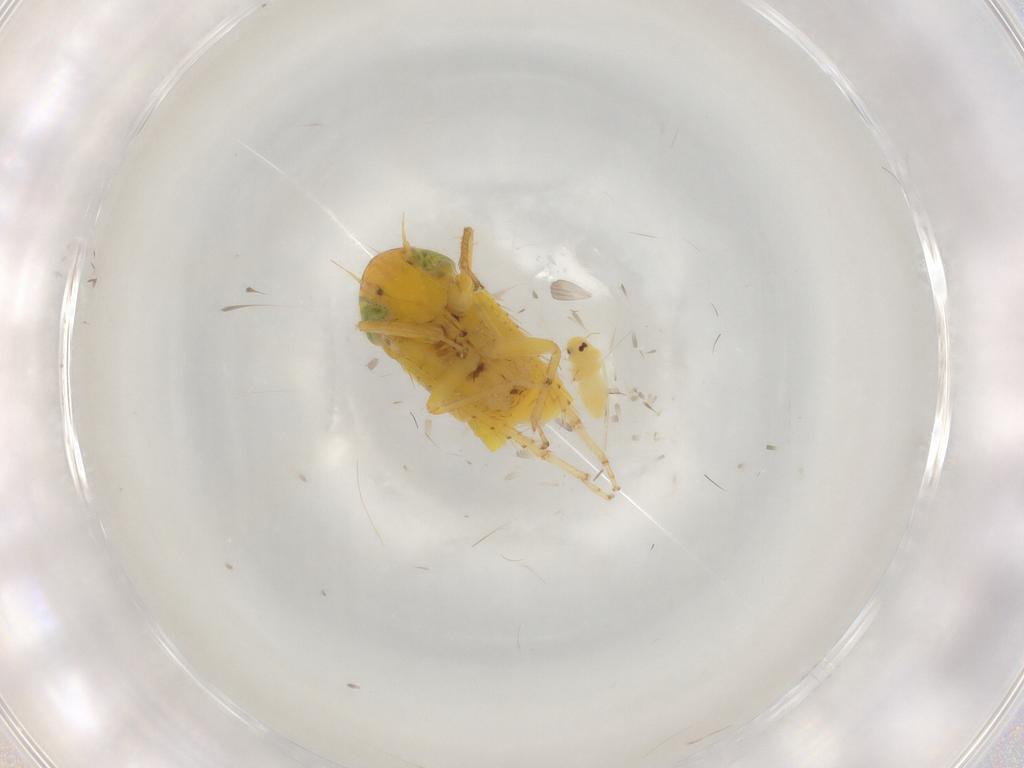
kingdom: Animalia
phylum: Arthropoda
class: Insecta
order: Hemiptera
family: Cicadellidae
